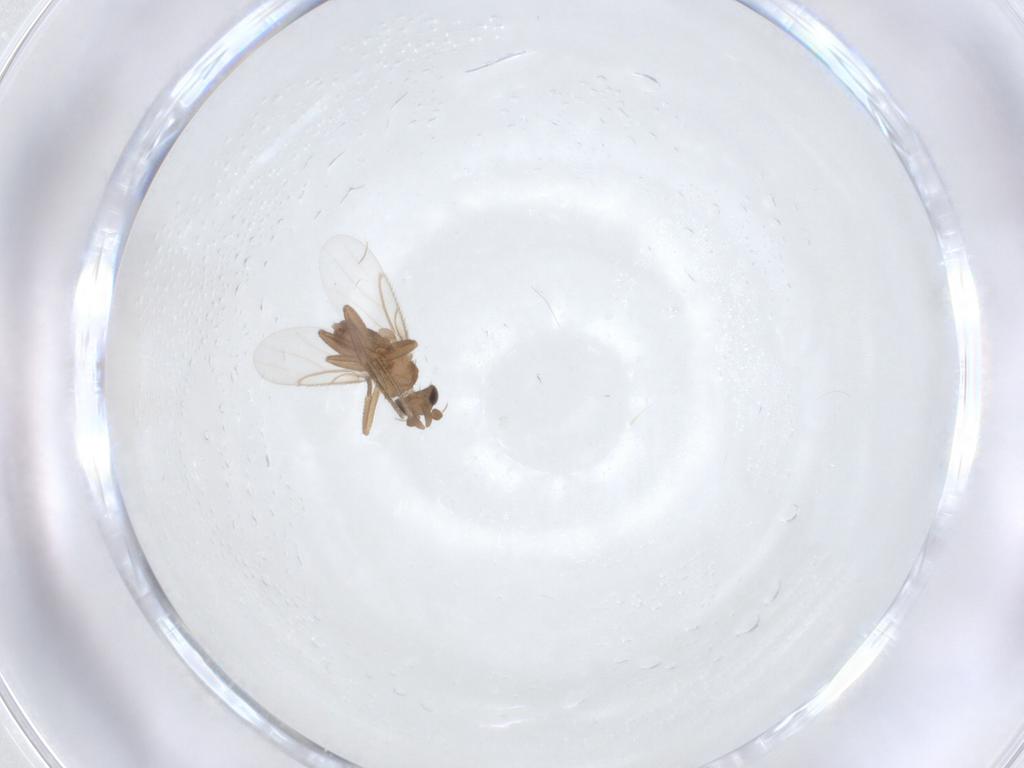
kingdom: Animalia
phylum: Arthropoda
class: Insecta
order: Diptera
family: Phoridae
